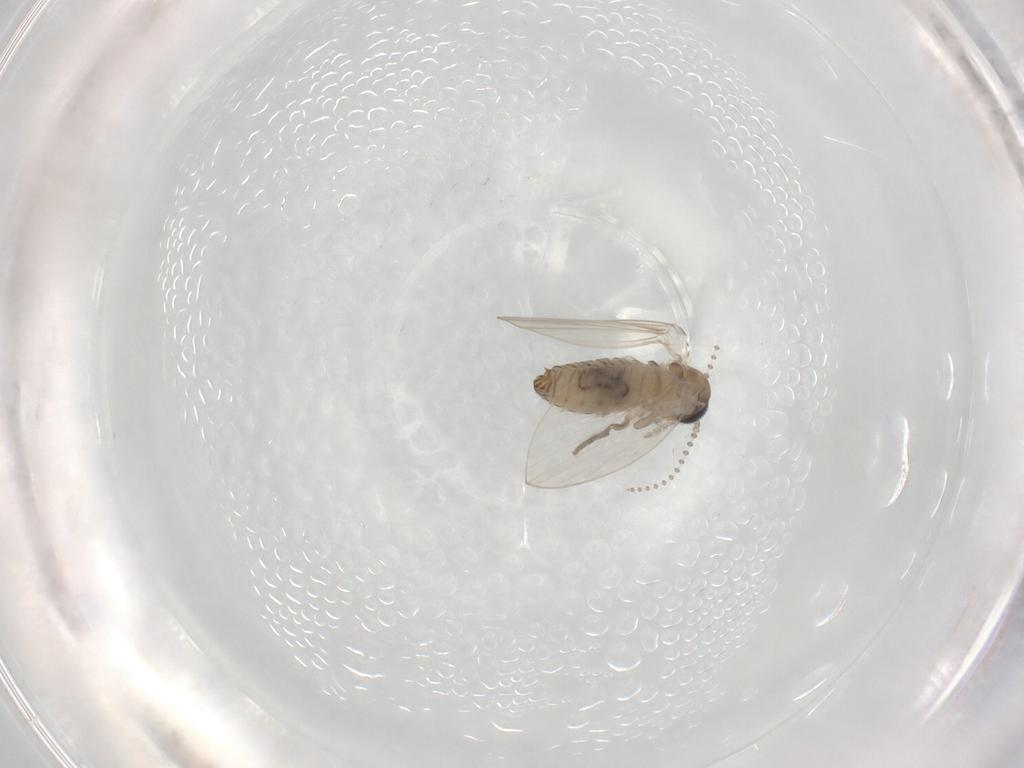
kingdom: Animalia
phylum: Arthropoda
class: Insecta
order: Diptera
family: Psychodidae
